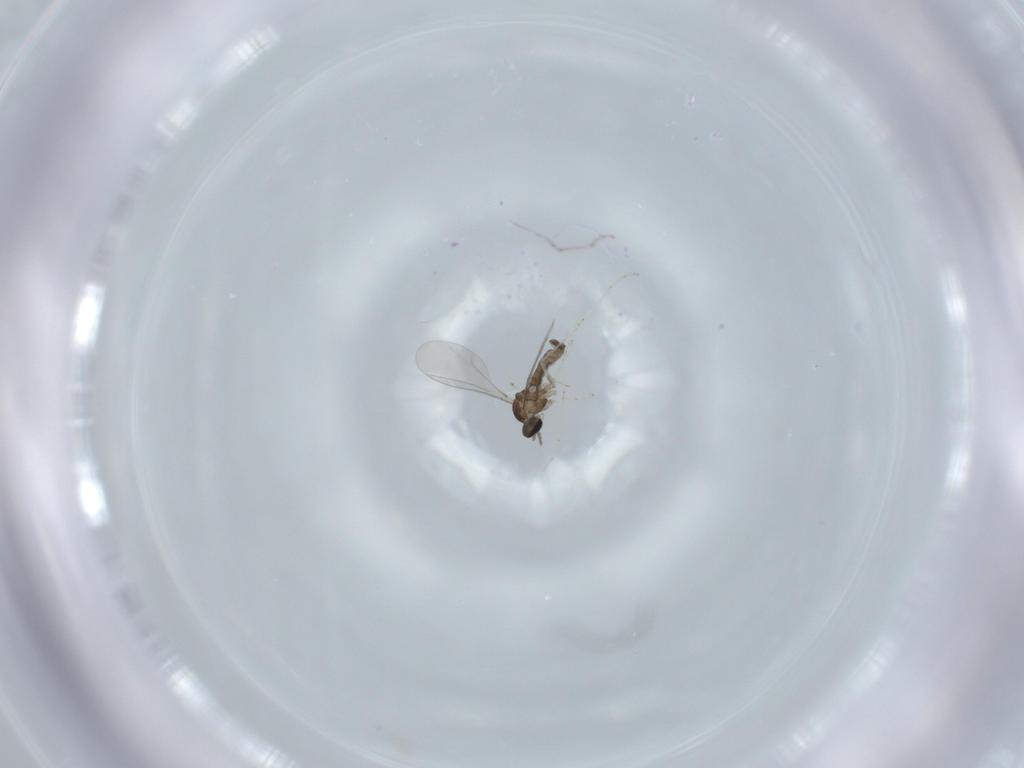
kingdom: Animalia
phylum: Arthropoda
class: Insecta
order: Diptera
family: Cecidomyiidae
